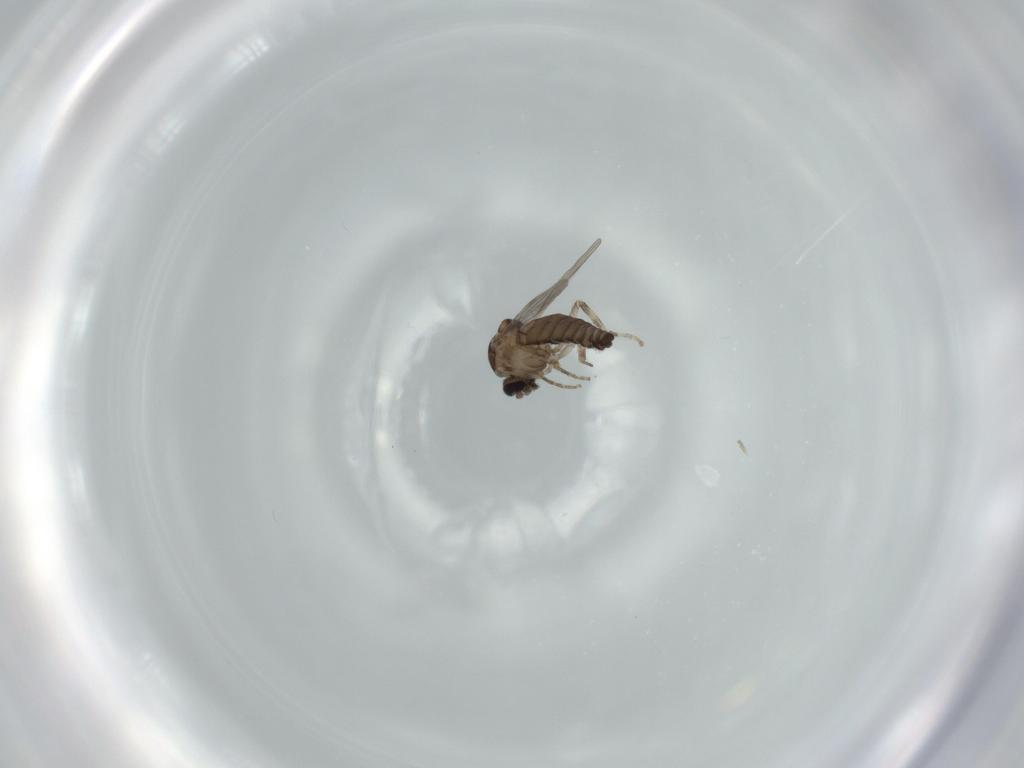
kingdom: Animalia
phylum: Arthropoda
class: Insecta
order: Diptera
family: Ceratopogonidae
